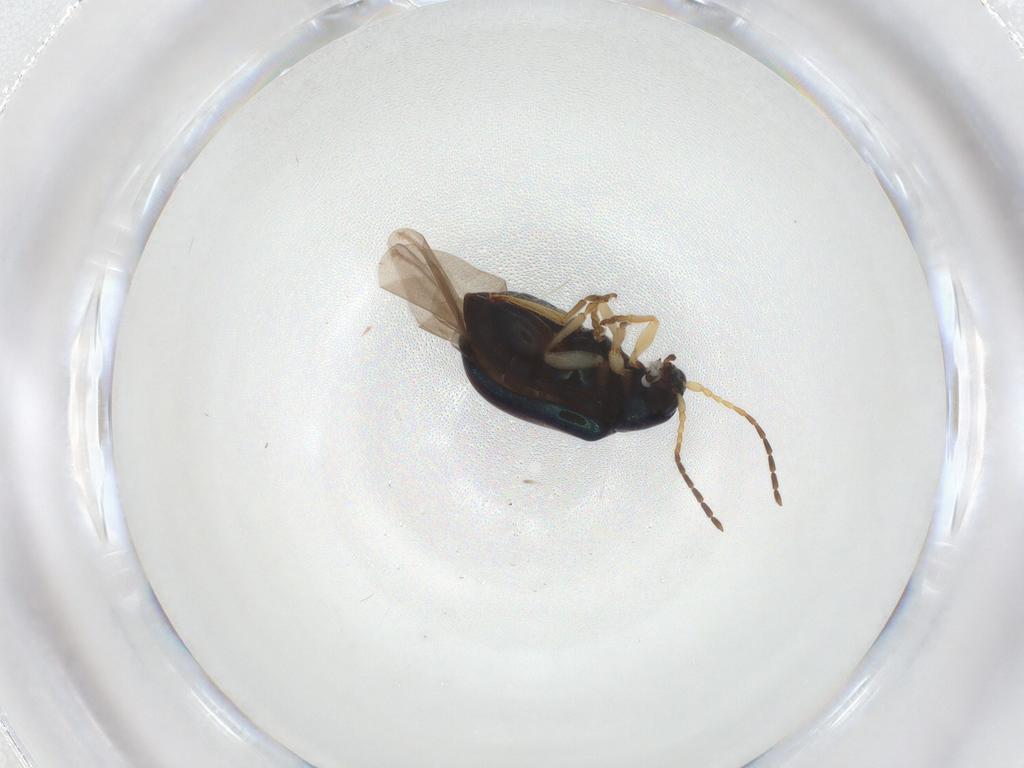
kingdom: Animalia
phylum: Arthropoda
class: Insecta
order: Coleoptera
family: Chrysomelidae
